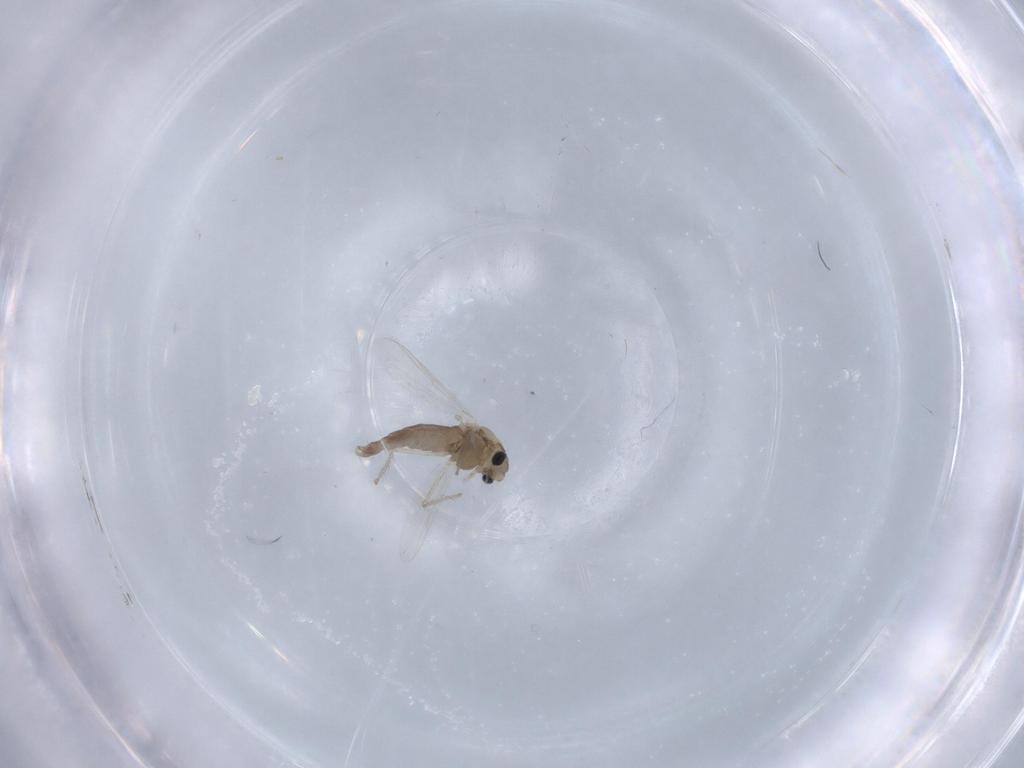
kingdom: Animalia
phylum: Arthropoda
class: Insecta
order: Diptera
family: Chironomidae
